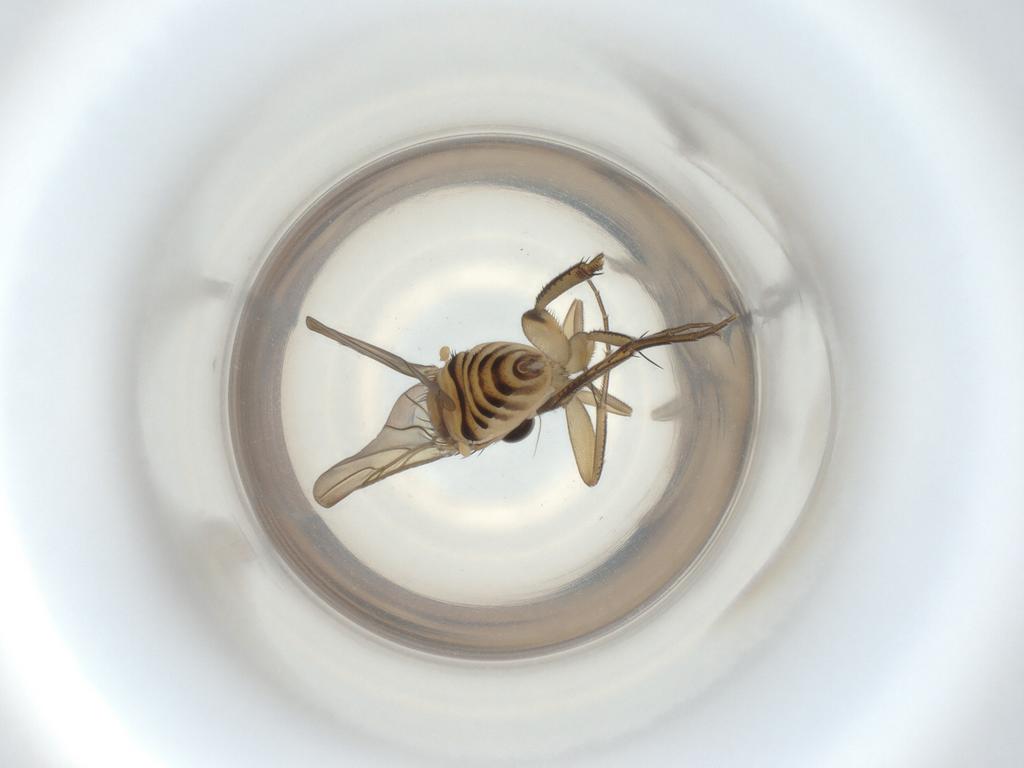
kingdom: Animalia
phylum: Arthropoda
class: Insecta
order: Diptera
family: Phoridae
